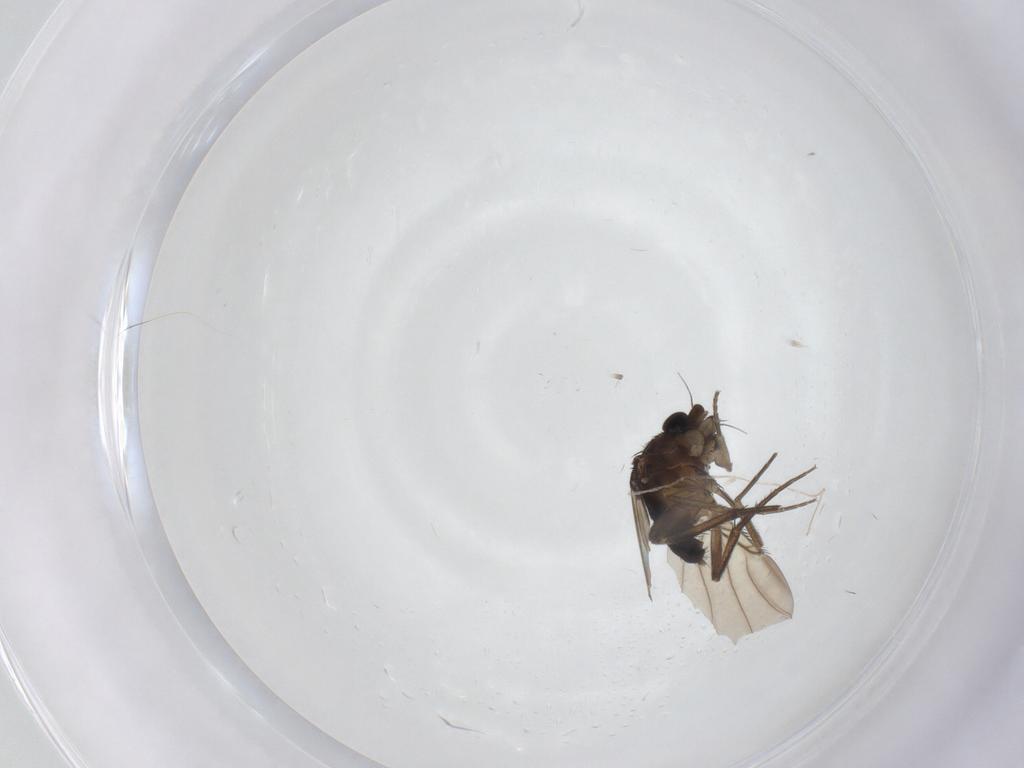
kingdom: Animalia
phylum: Arthropoda
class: Insecta
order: Diptera
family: Phoridae
